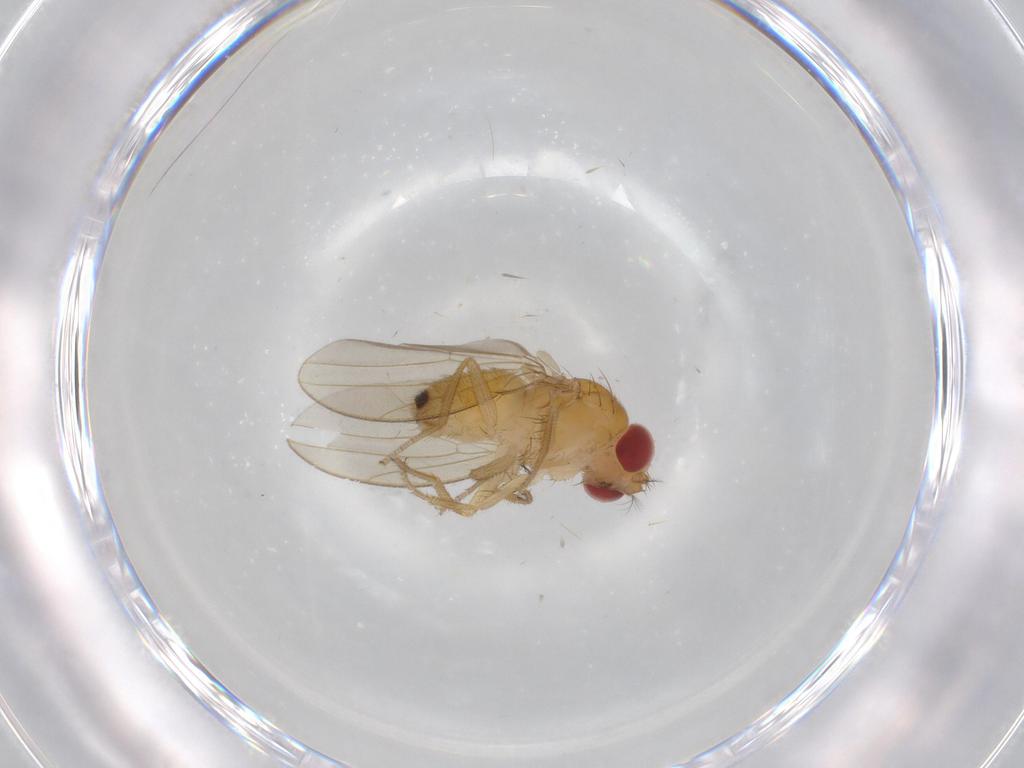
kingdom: Animalia
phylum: Arthropoda
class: Insecta
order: Diptera
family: Drosophilidae
